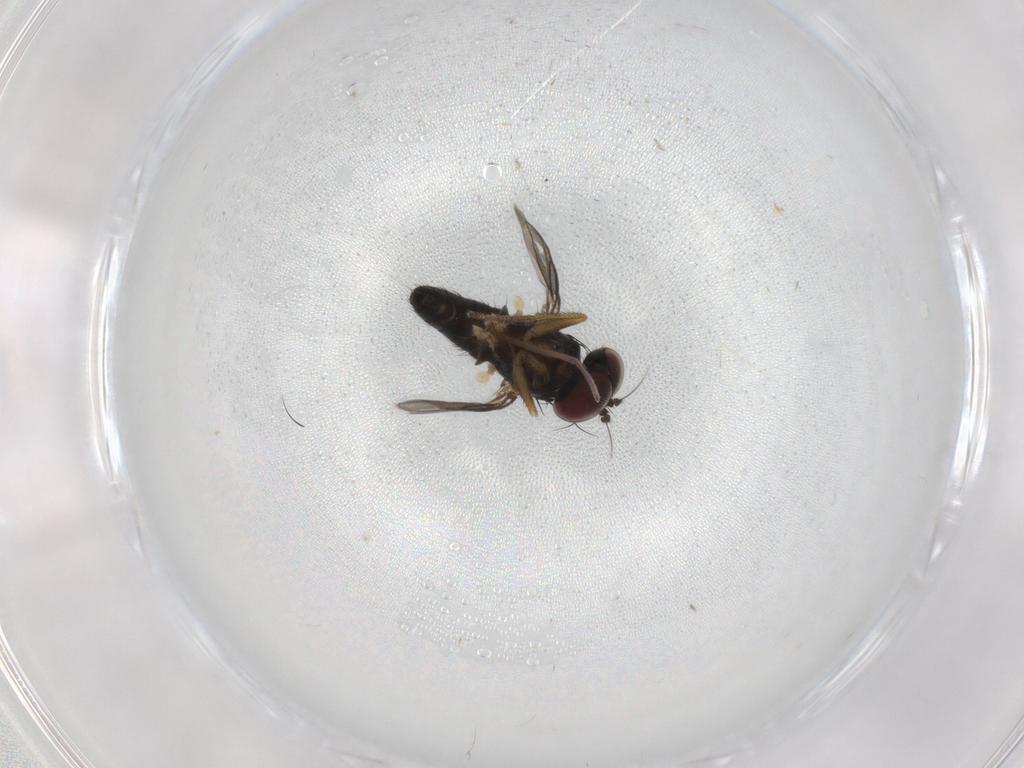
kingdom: Animalia
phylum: Arthropoda
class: Insecta
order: Diptera
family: Dolichopodidae
